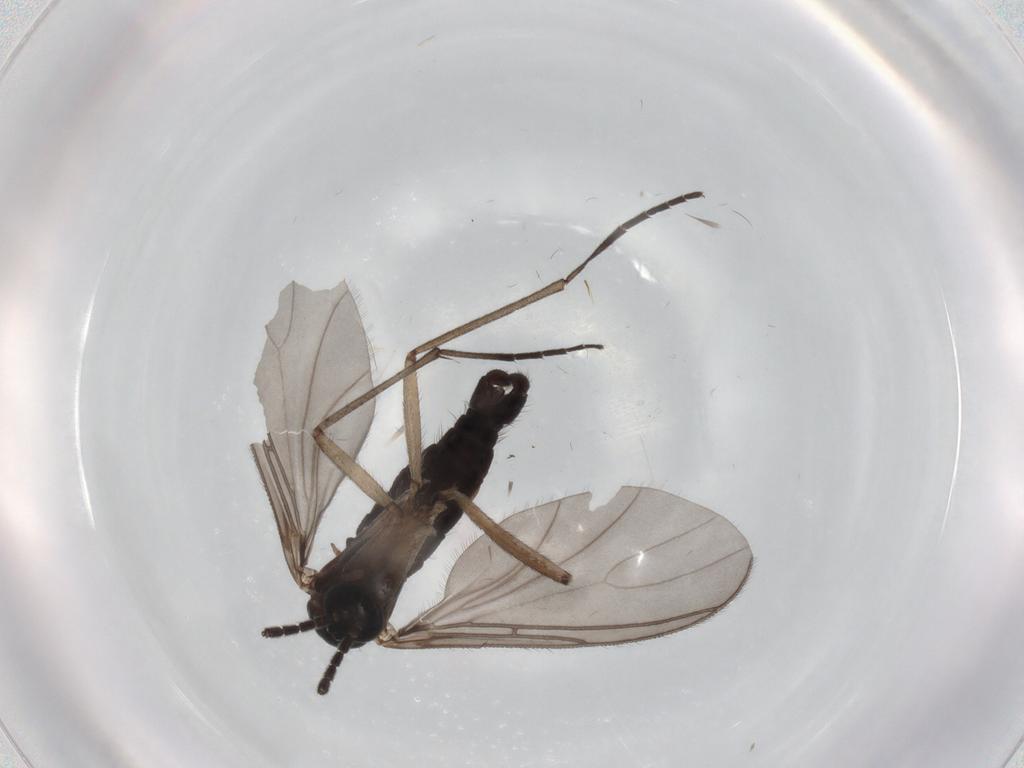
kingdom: Animalia
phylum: Arthropoda
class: Insecta
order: Diptera
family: Sciaridae
